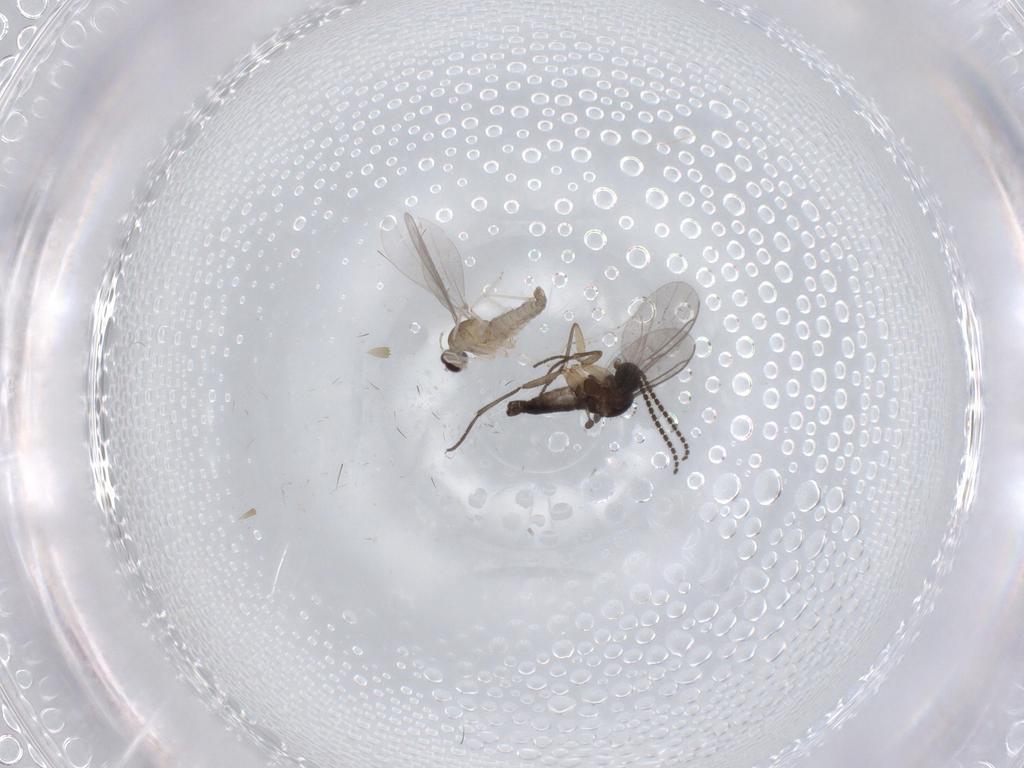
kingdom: Animalia
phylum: Arthropoda
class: Insecta
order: Diptera
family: Sciaridae
